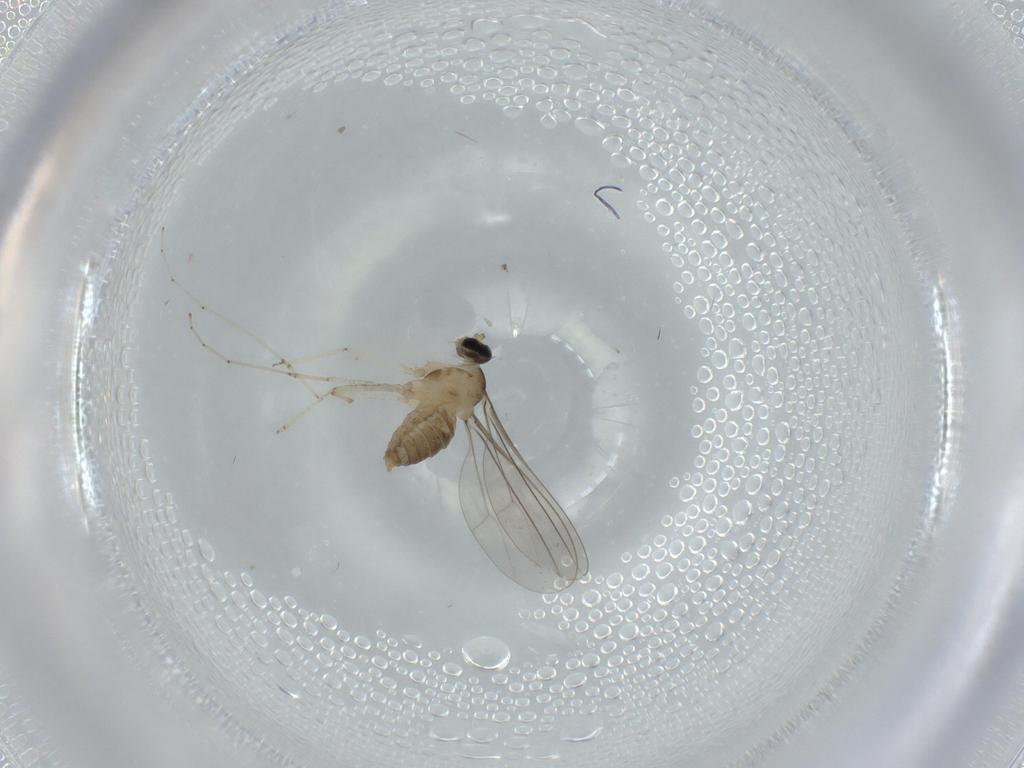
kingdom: Animalia
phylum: Arthropoda
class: Insecta
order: Diptera
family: Cecidomyiidae
